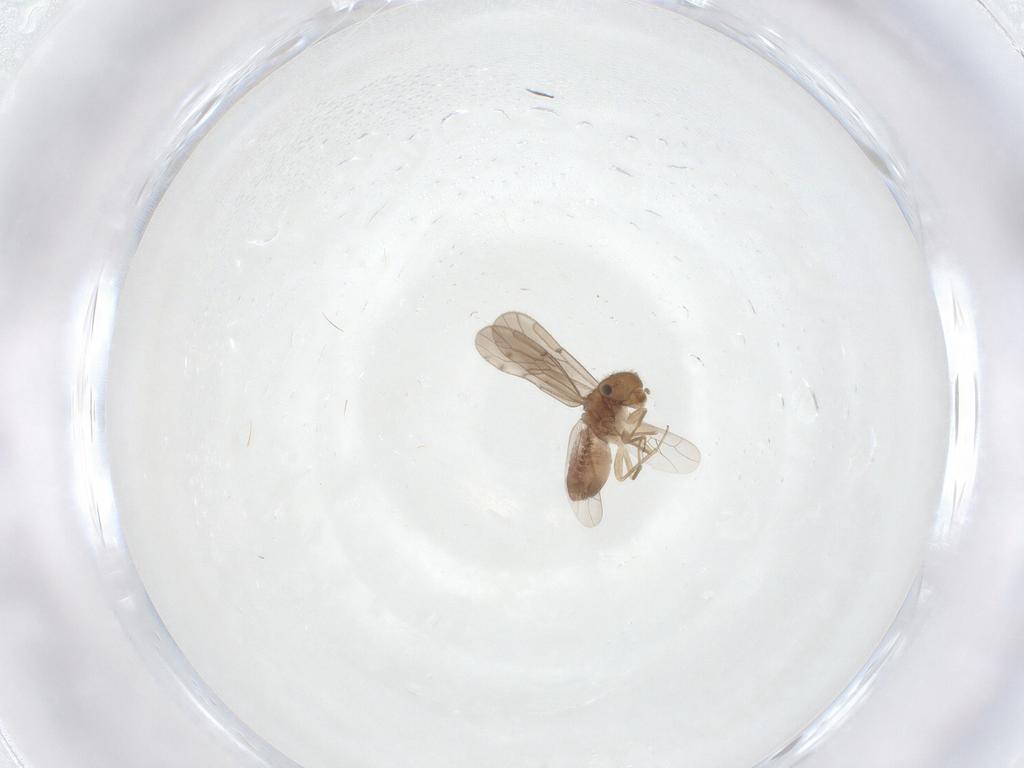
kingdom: Animalia
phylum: Arthropoda
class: Insecta
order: Psocodea
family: Ectopsocidae
